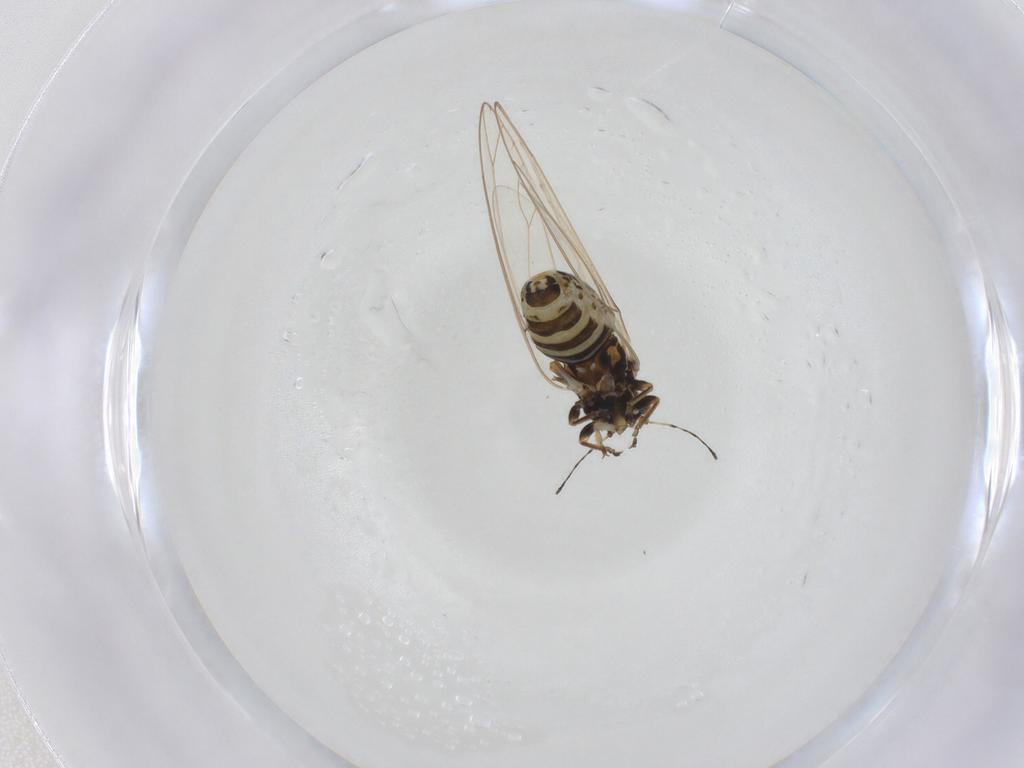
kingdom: Animalia
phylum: Arthropoda
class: Insecta
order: Hemiptera
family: Triozidae
